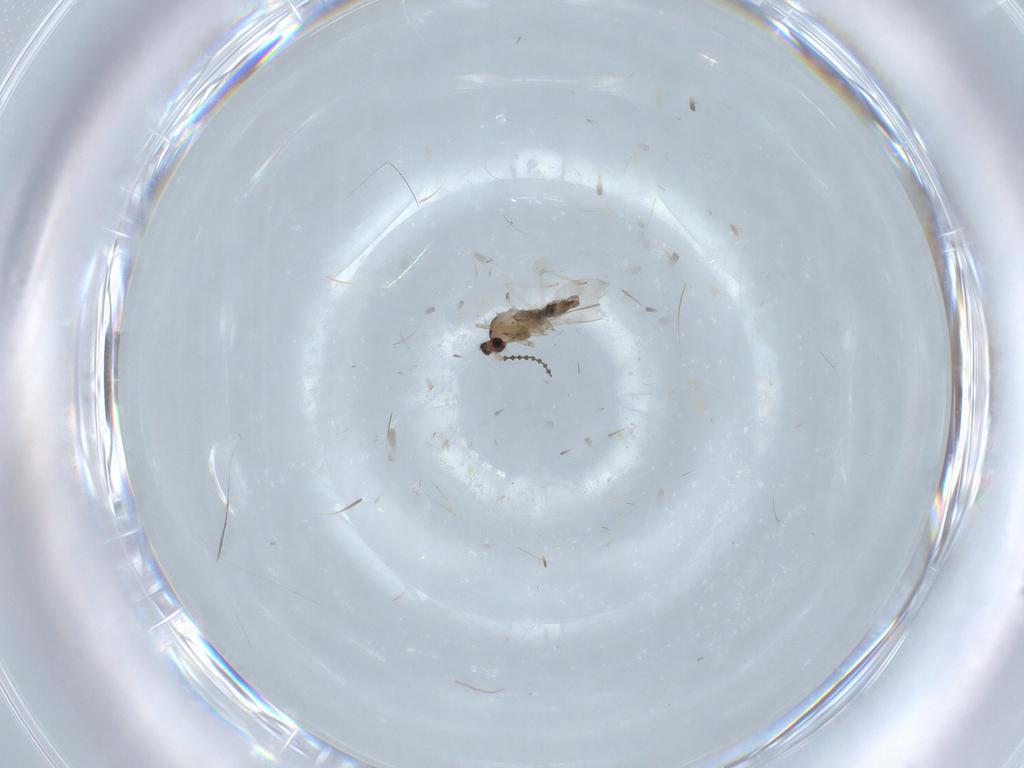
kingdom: Animalia
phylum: Arthropoda
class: Insecta
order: Diptera
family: Cecidomyiidae
